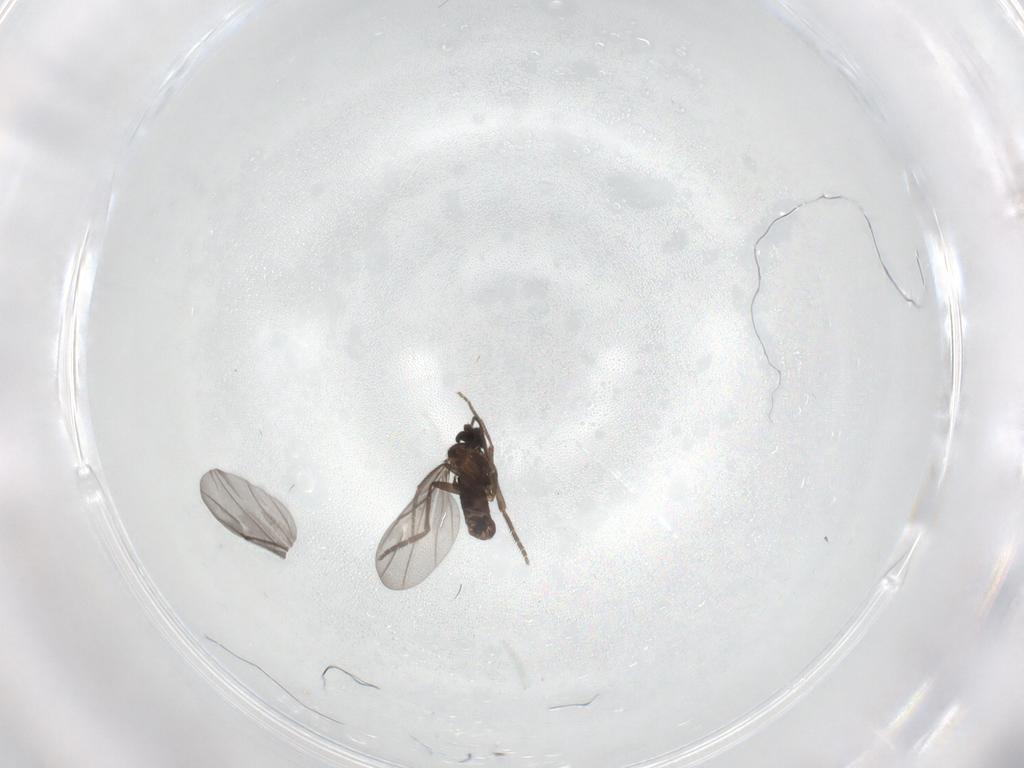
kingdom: Animalia
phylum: Arthropoda
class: Insecta
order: Diptera
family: Phoridae
